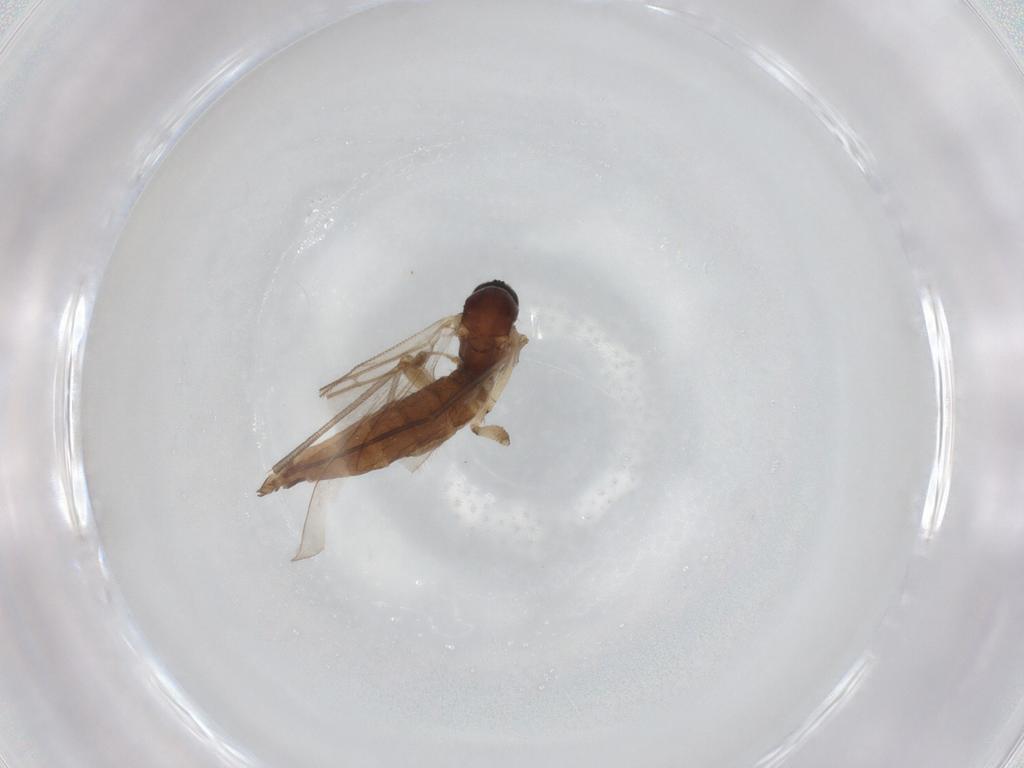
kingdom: Animalia
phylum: Arthropoda
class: Insecta
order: Diptera
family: Sciaridae
